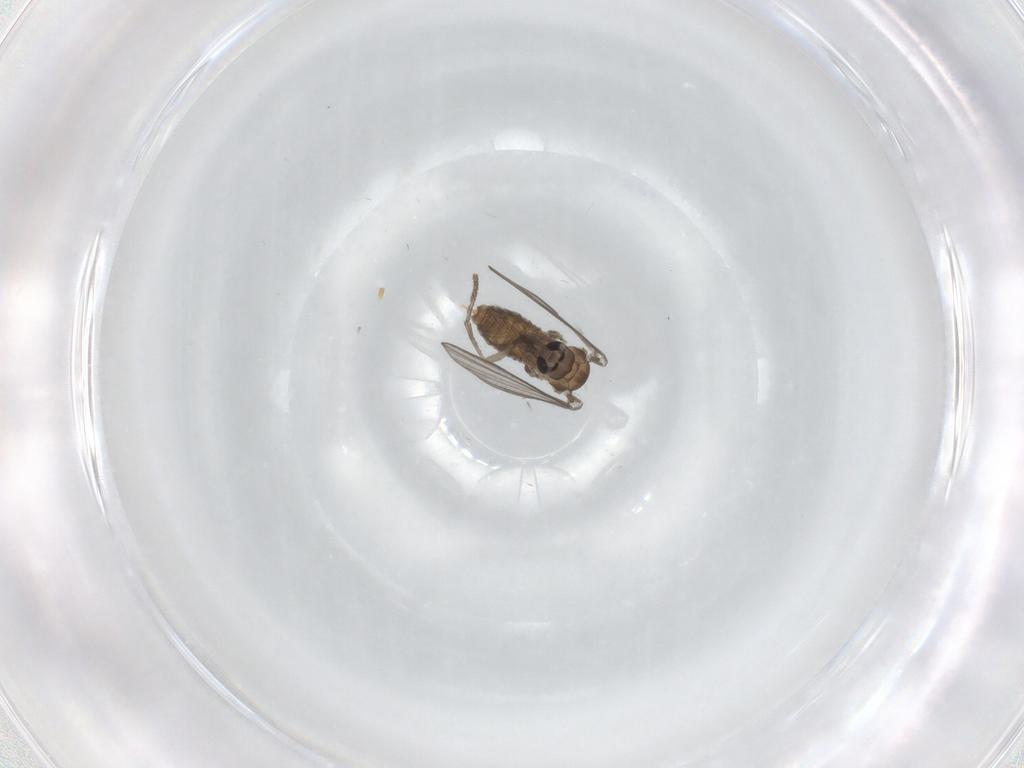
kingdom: Animalia
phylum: Arthropoda
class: Insecta
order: Diptera
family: Psychodidae
